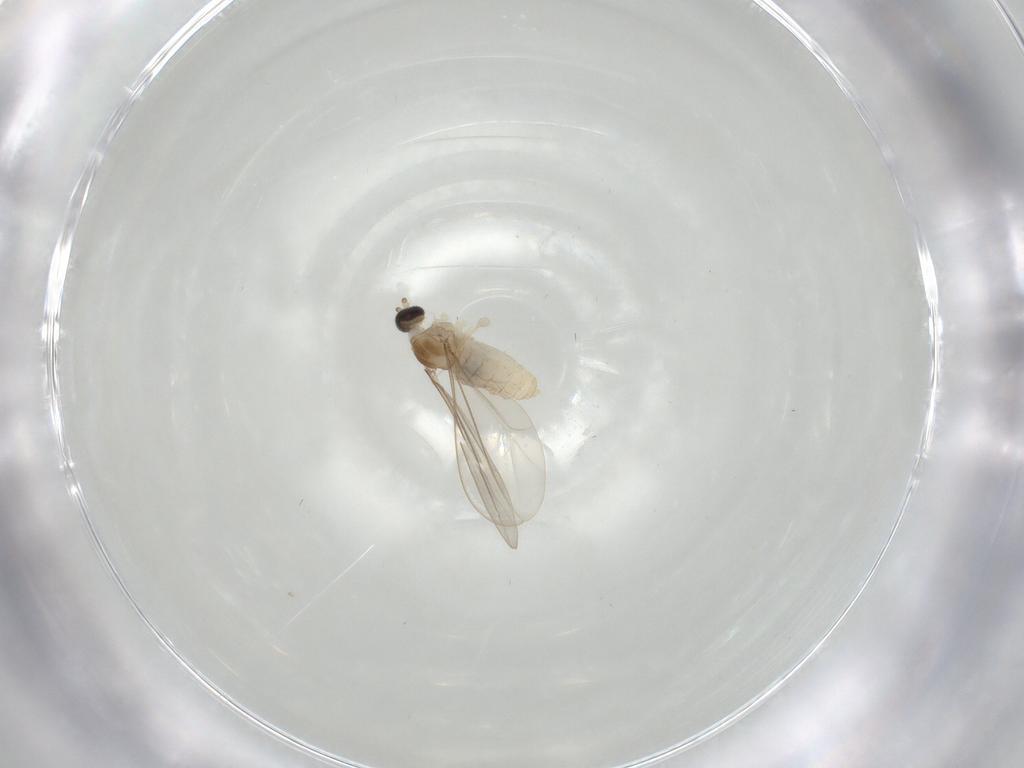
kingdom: Animalia
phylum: Arthropoda
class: Insecta
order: Diptera
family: Cecidomyiidae
